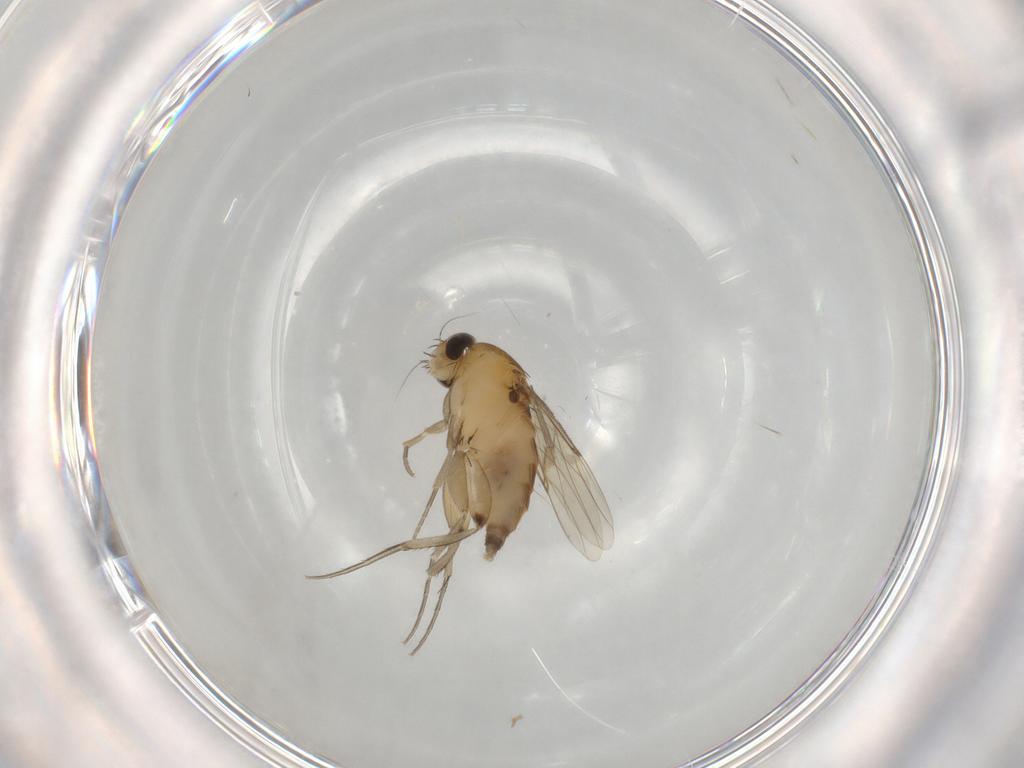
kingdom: Animalia
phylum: Arthropoda
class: Insecta
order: Diptera
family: Phoridae
